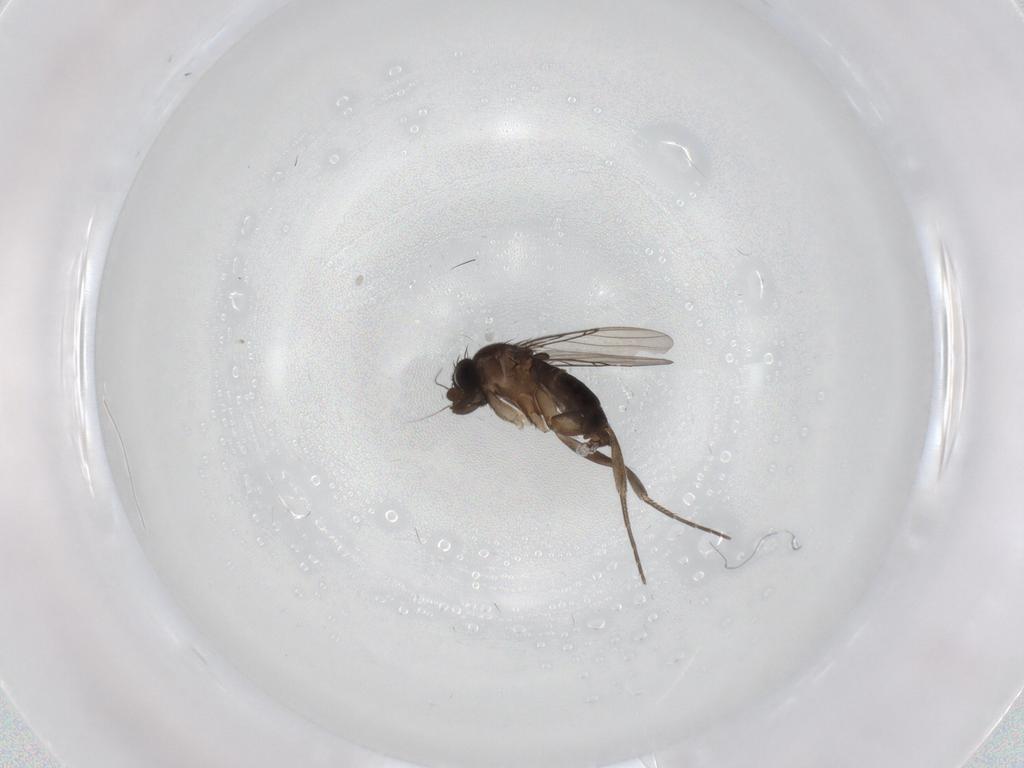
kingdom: Animalia
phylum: Arthropoda
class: Insecta
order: Diptera
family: Phoridae
